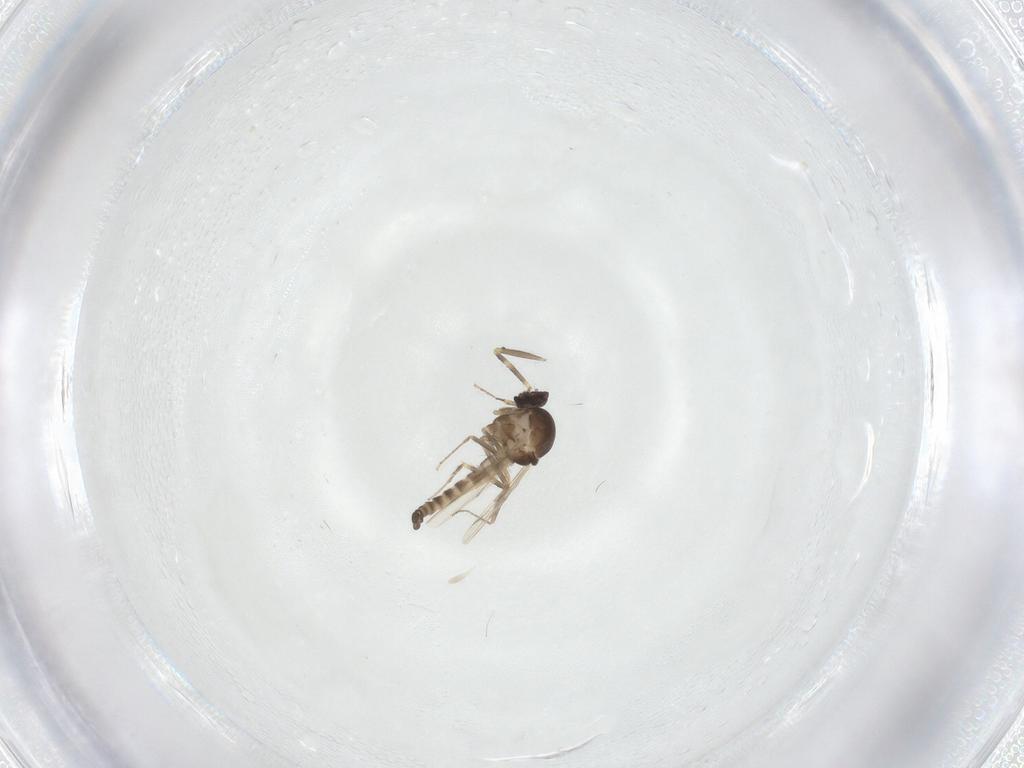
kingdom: Animalia
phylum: Arthropoda
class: Insecta
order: Diptera
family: Ceratopogonidae
